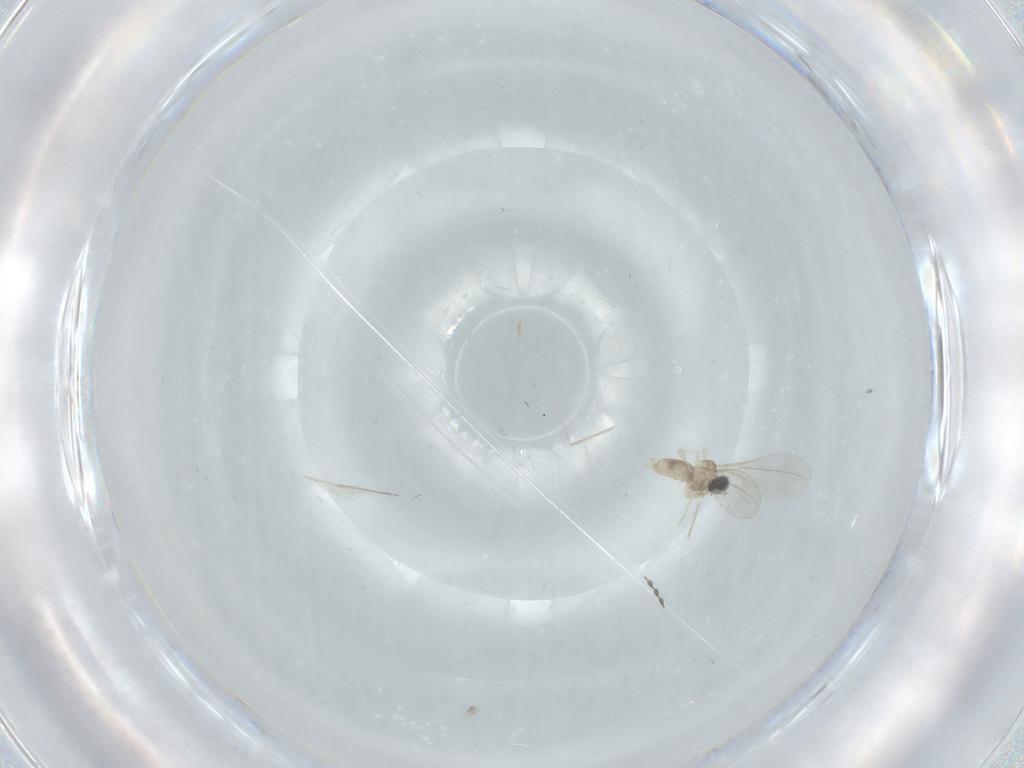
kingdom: Animalia
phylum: Arthropoda
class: Insecta
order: Diptera
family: Cecidomyiidae
